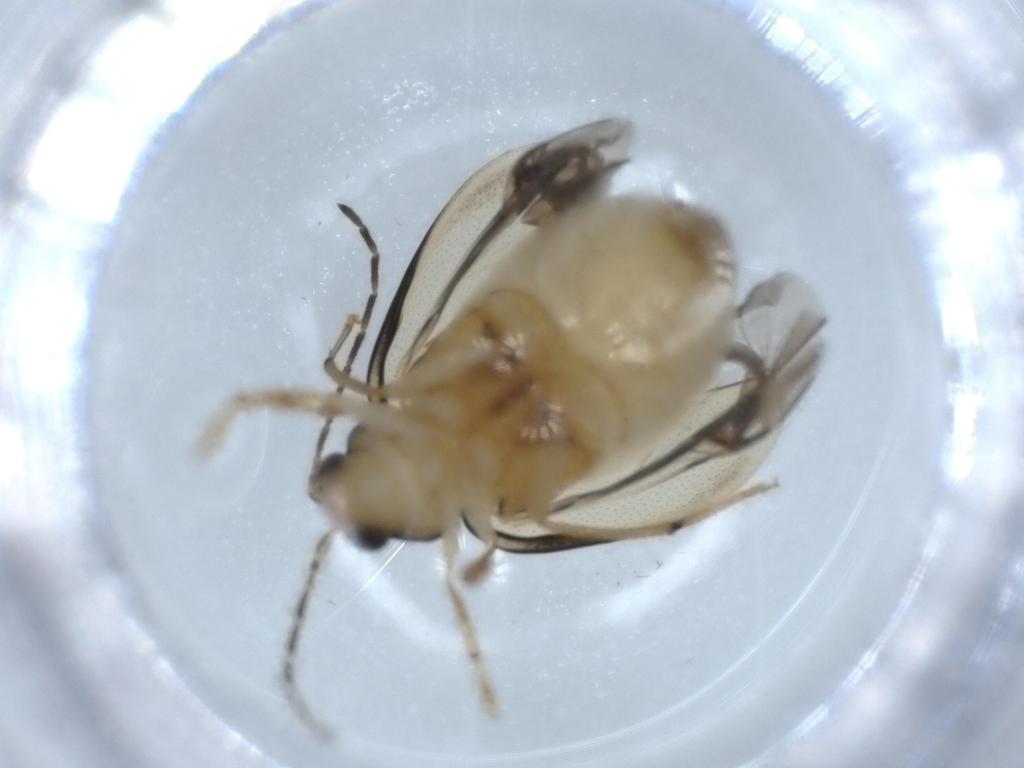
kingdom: Animalia
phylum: Arthropoda
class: Insecta
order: Coleoptera
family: Chrysomelidae
